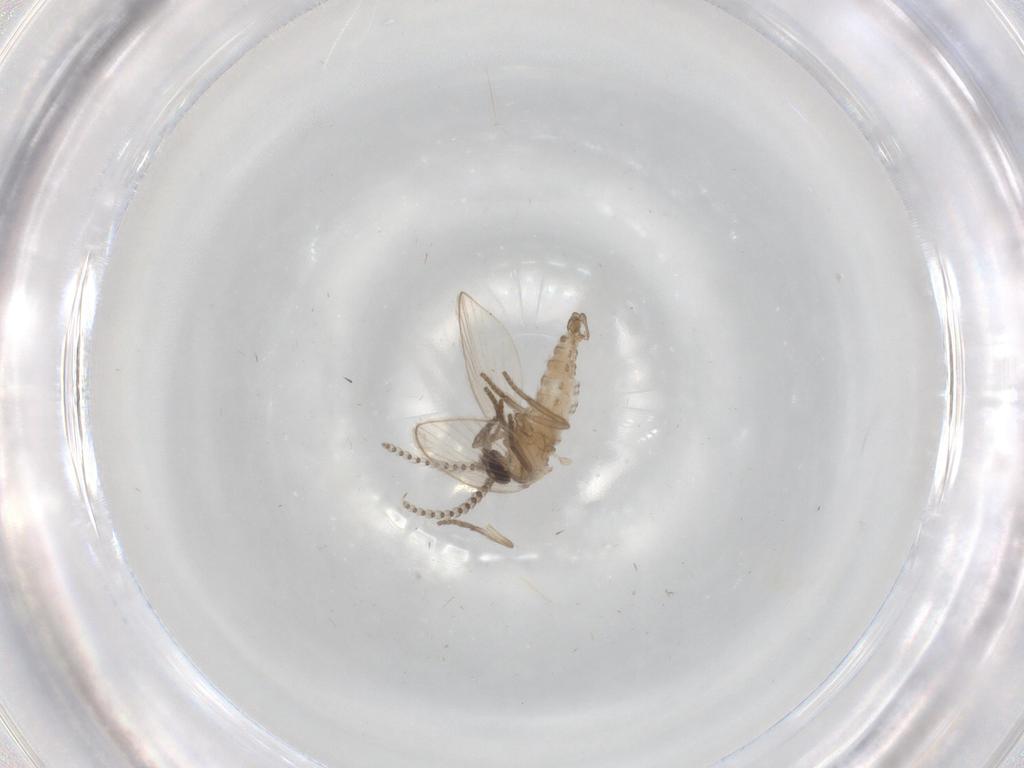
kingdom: Animalia
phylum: Arthropoda
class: Insecta
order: Diptera
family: Psychodidae
